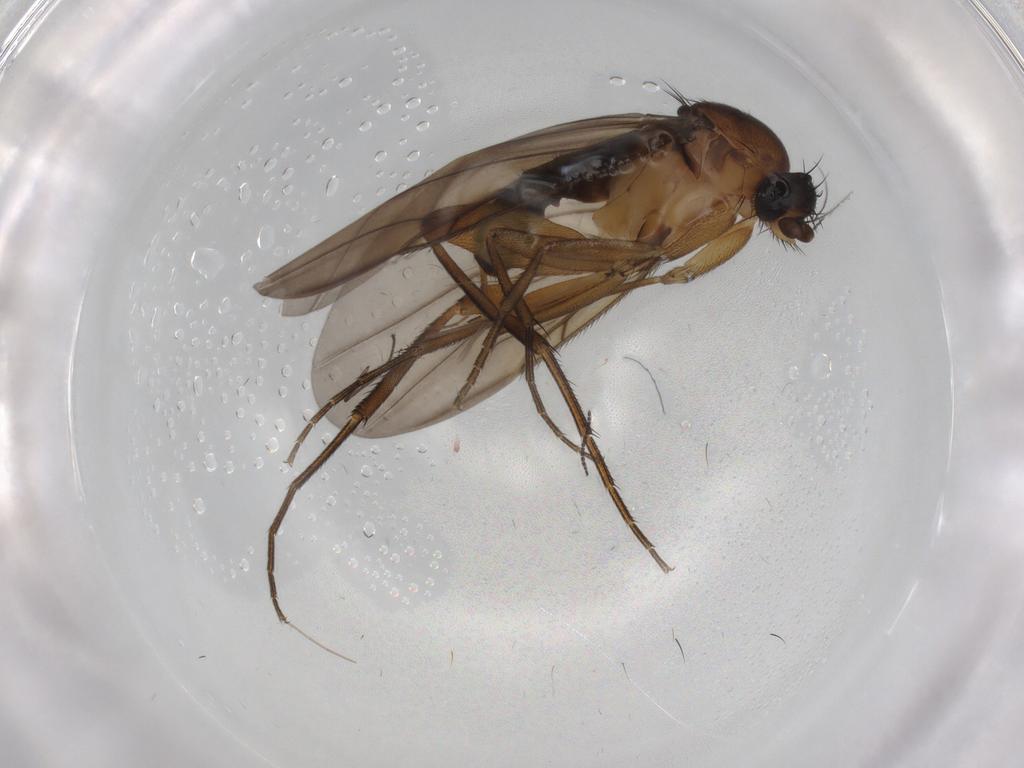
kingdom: Animalia
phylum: Arthropoda
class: Insecta
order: Diptera
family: Phoridae
